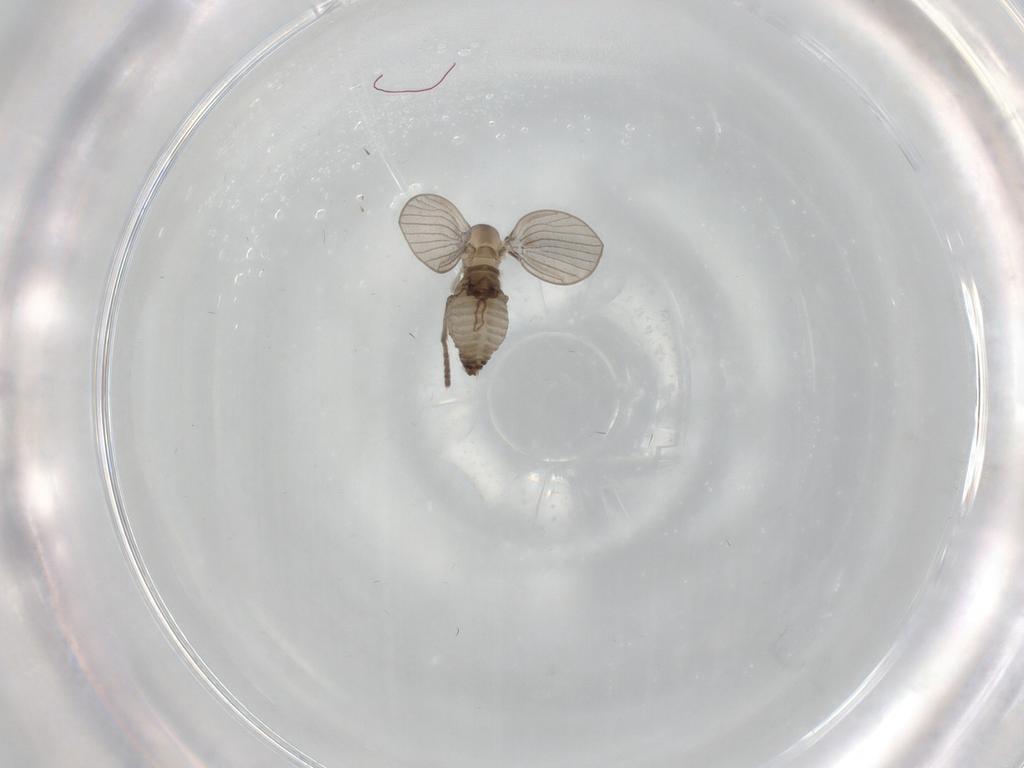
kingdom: Animalia
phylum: Arthropoda
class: Insecta
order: Diptera
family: Psychodidae
